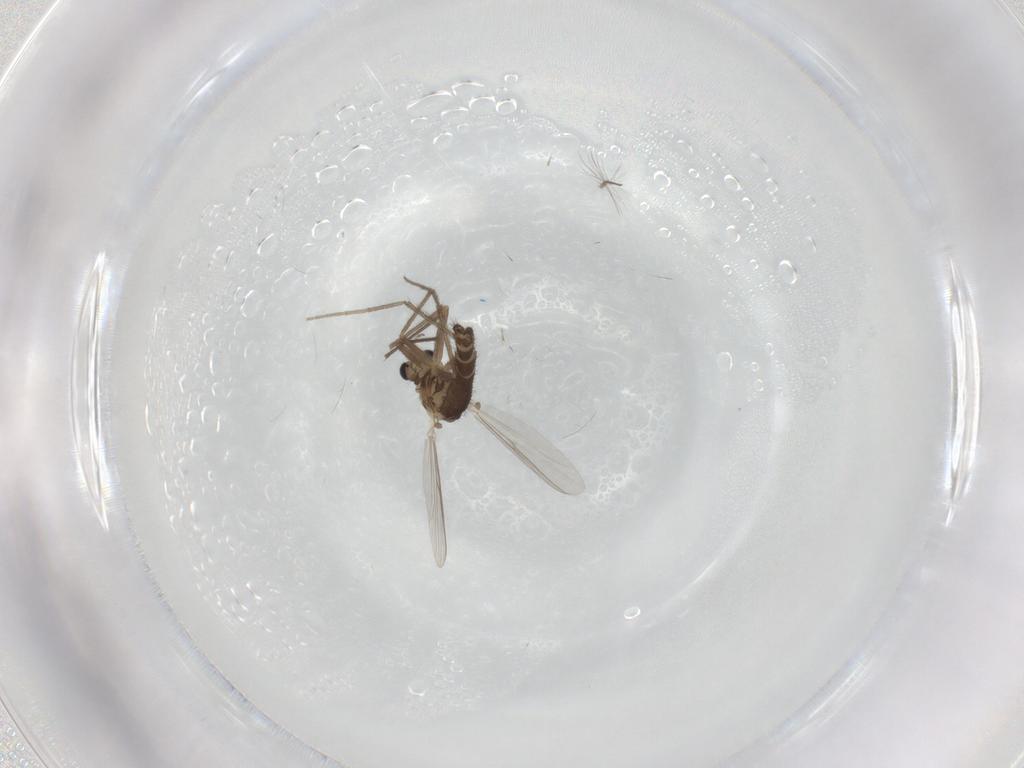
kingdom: Animalia
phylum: Arthropoda
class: Insecta
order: Diptera
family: Chironomidae
